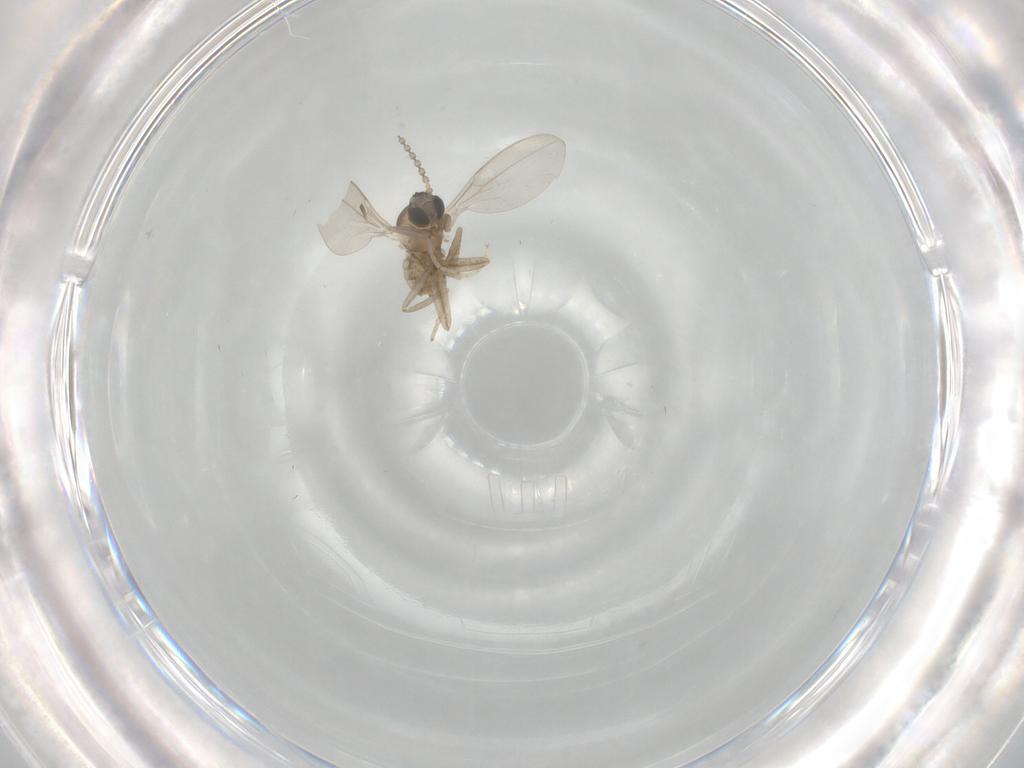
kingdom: Animalia
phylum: Arthropoda
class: Insecta
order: Diptera
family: Cecidomyiidae
